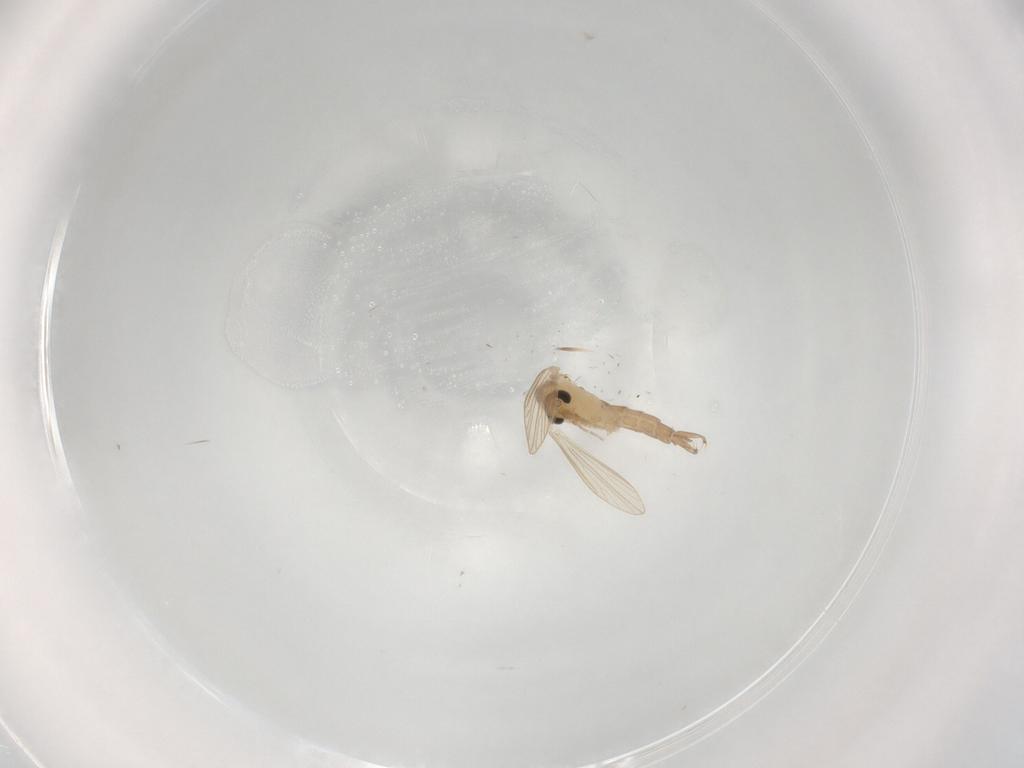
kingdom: Animalia
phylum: Arthropoda
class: Insecta
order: Diptera
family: Psychodidae
